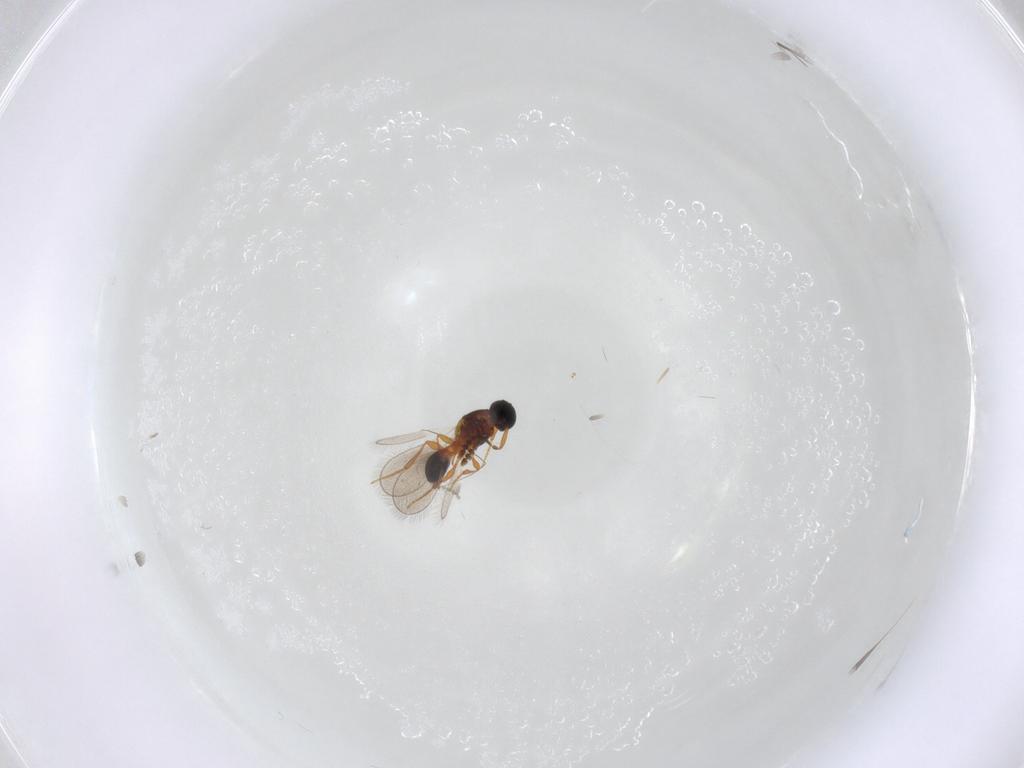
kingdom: Animalia
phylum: Arthropoda
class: Insecta
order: Hymenoptera
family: Platygastridae
